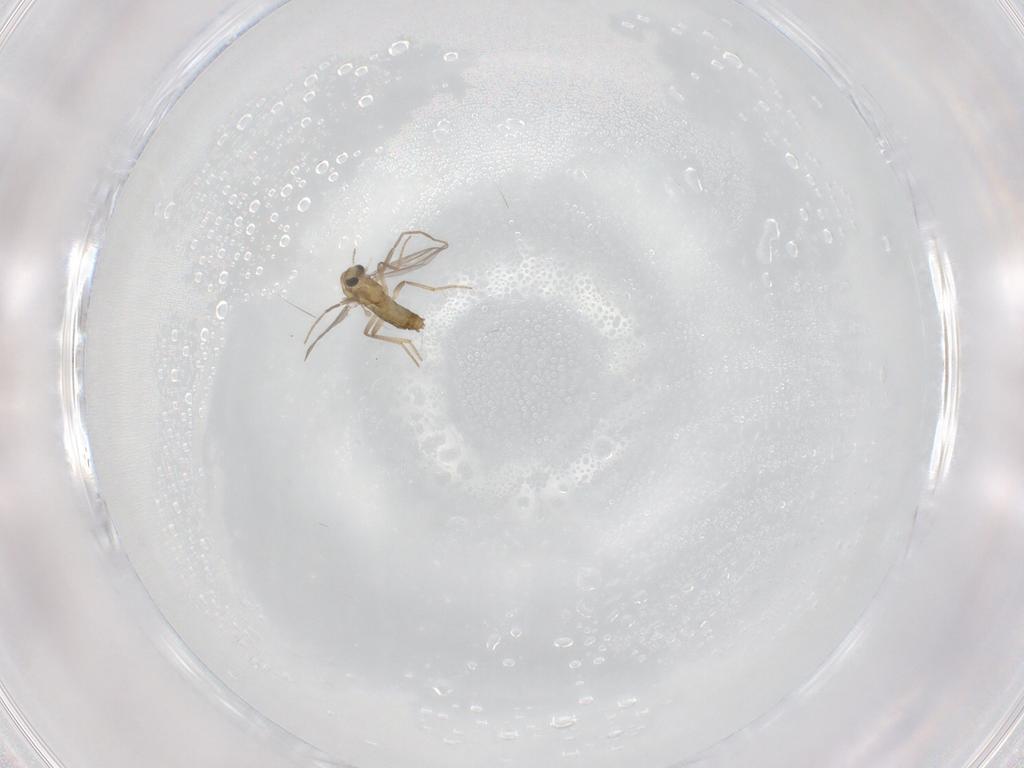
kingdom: Animalia
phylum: Arthropoda
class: Insecta
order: Diptera
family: Chironomidae
